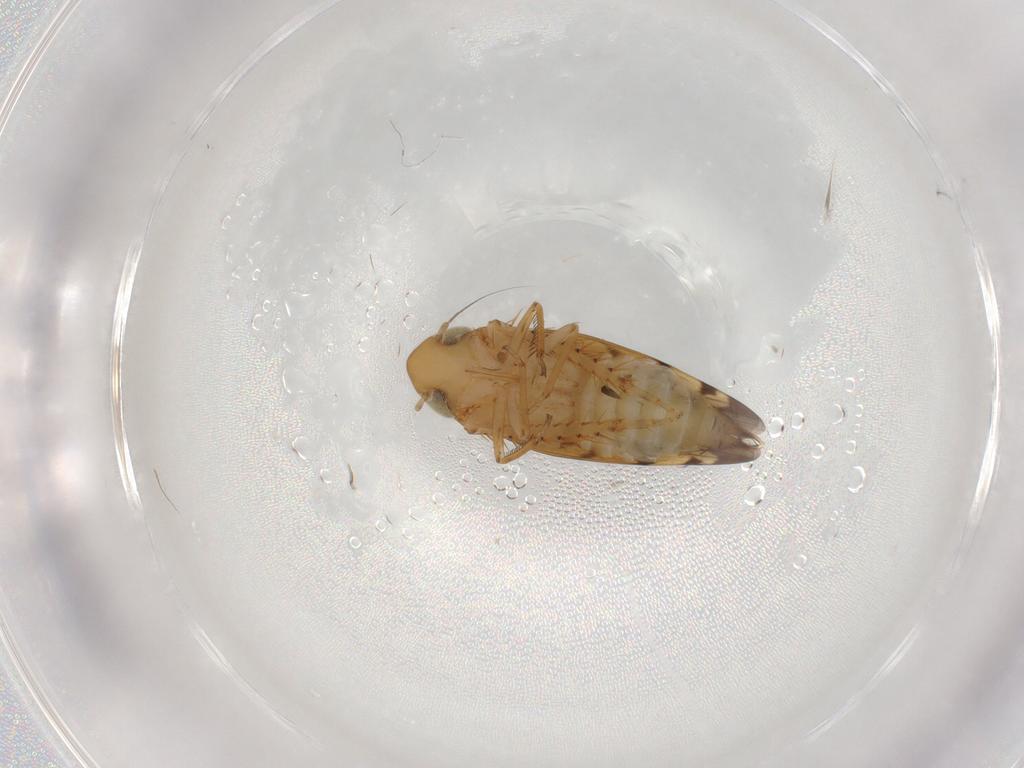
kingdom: Animalia
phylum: Arthropoda
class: Insecta
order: Hemiptera
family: Cicadellidae
